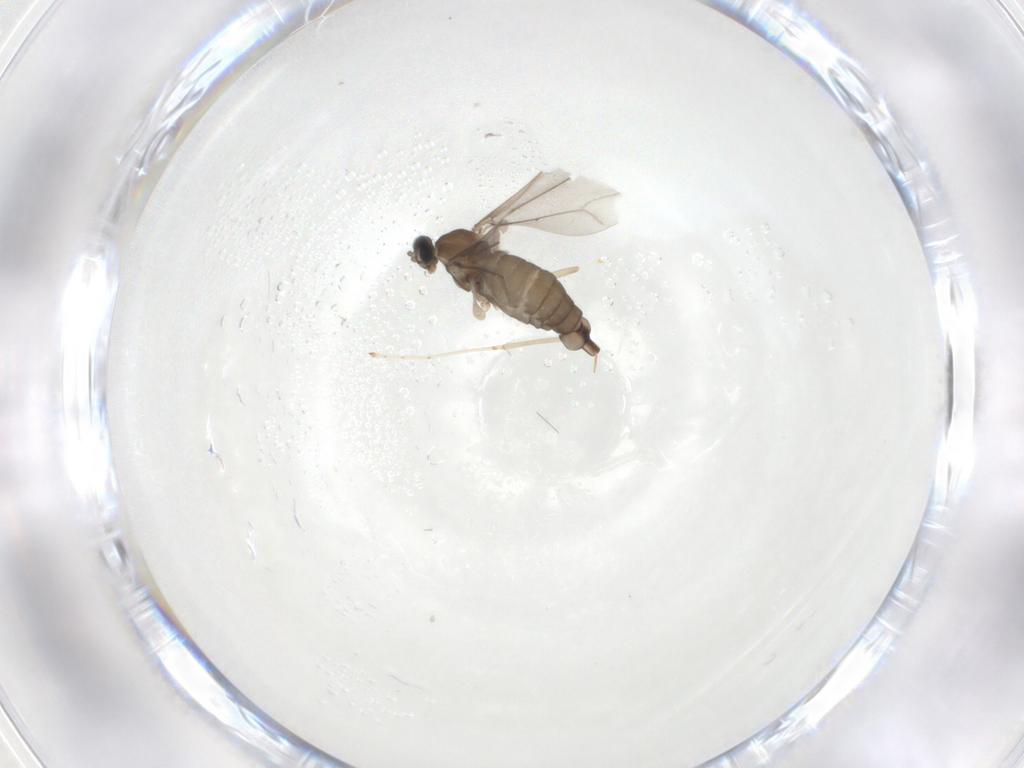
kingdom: Animalia
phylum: Arthropoda
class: Insecta
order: Diptera
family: Cecidomyiidae
